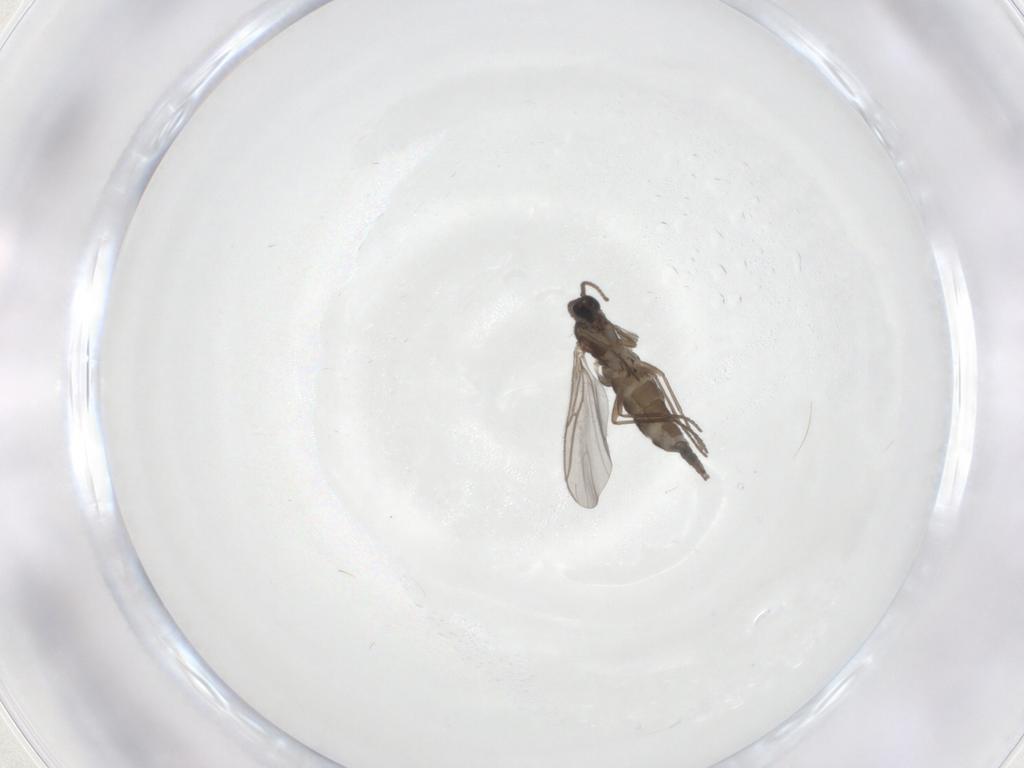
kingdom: Animalia
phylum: Arthropoda
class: Insecta
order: Diptera
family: Sciaridae
